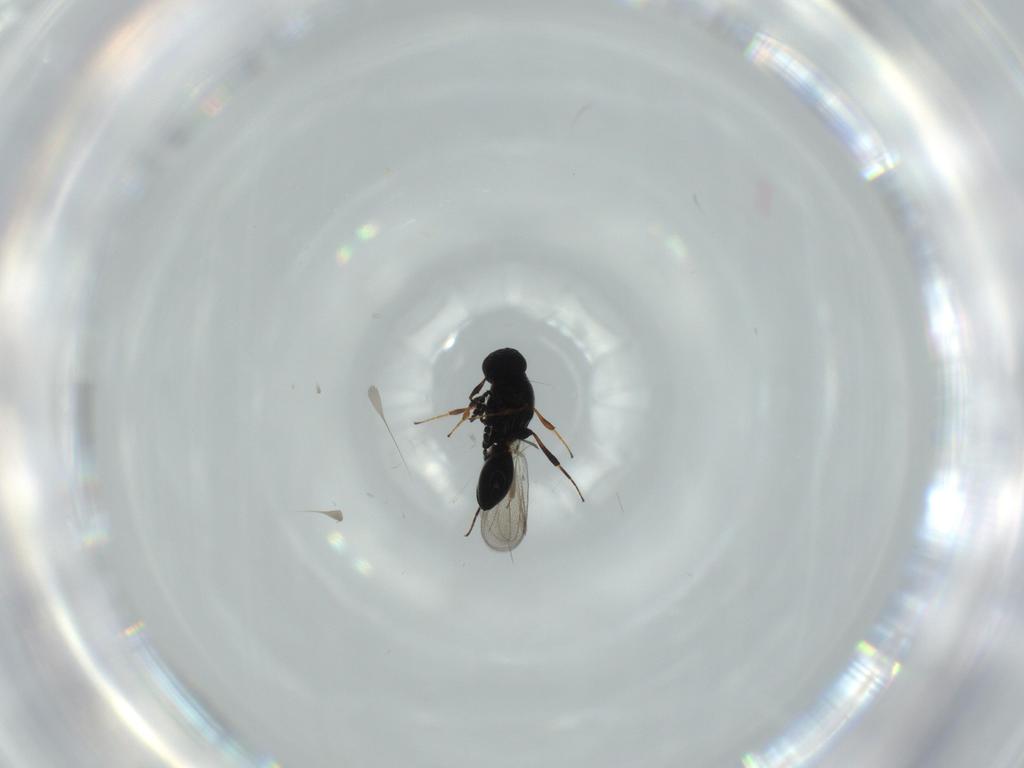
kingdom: Animalia
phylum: Arthropoda
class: Insecta
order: Hymenoptera
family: Platygastridae
